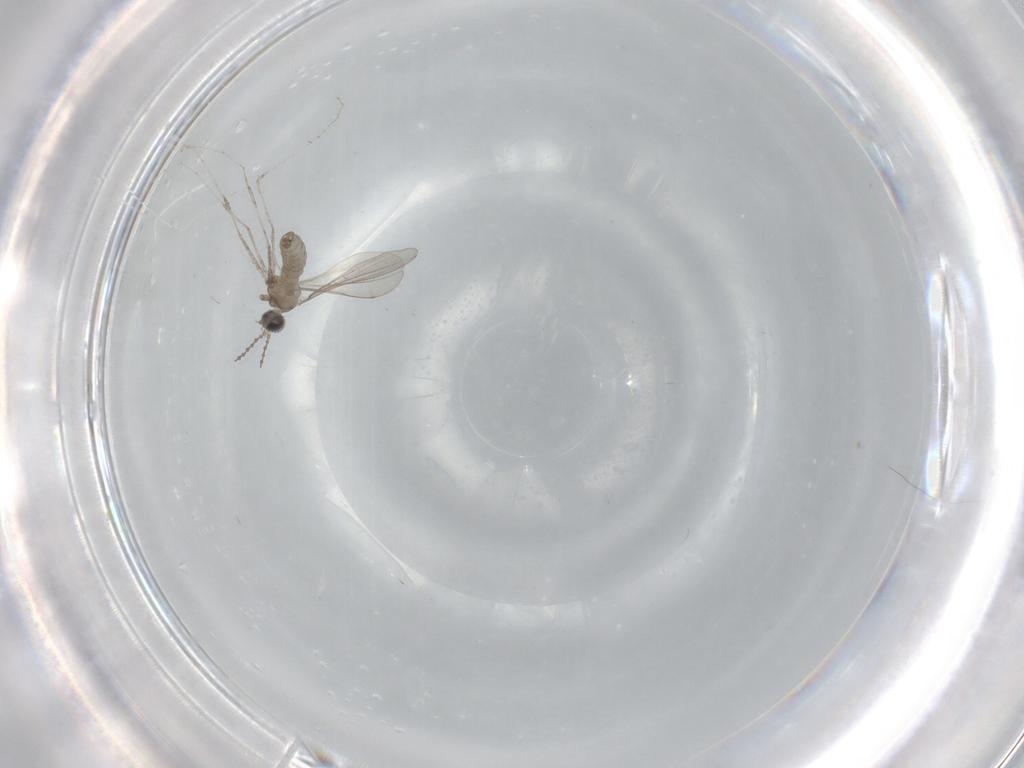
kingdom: Animalia
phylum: Arthropoda
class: Insecta
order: Diptera
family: Cecidomyiidae
